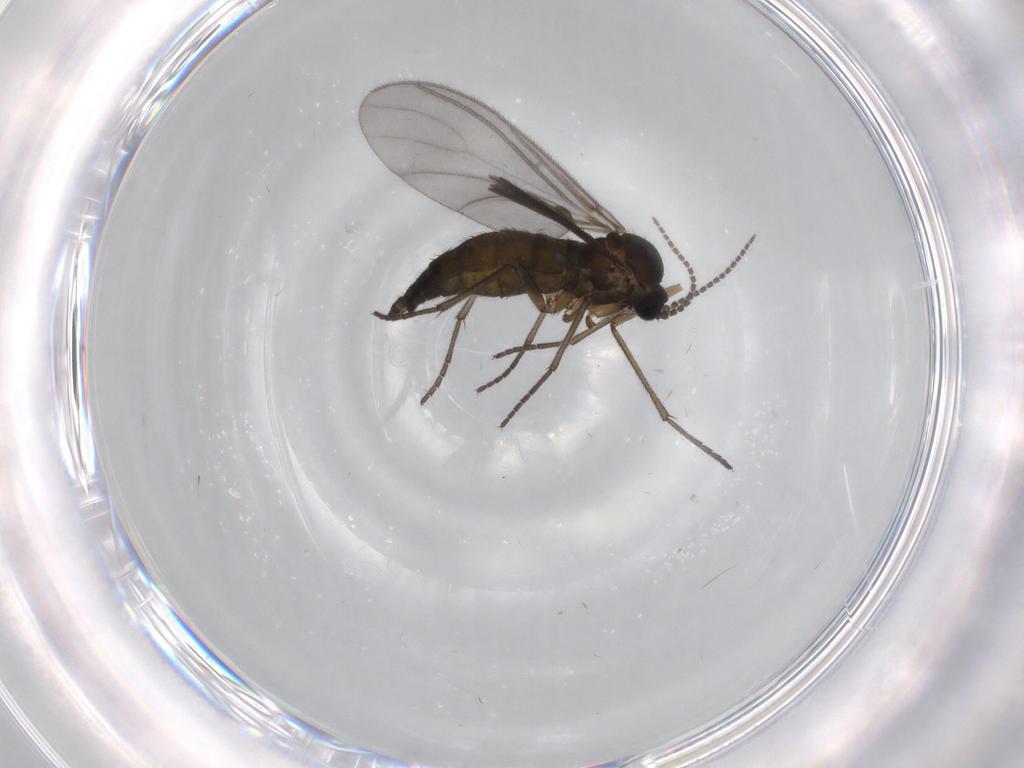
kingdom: Animalia
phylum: Arthropoda
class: Insecta
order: Diptera
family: Sciaridae
